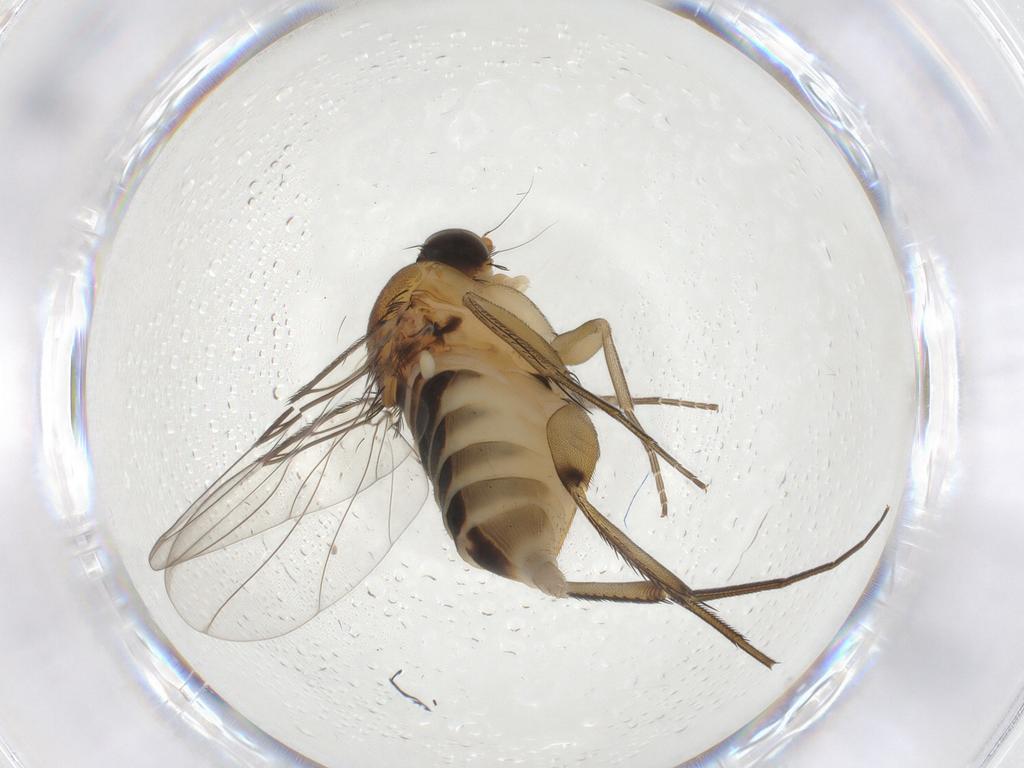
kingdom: Animalia
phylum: Arthropoda
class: Insecta
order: Diptera
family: Phoridae
